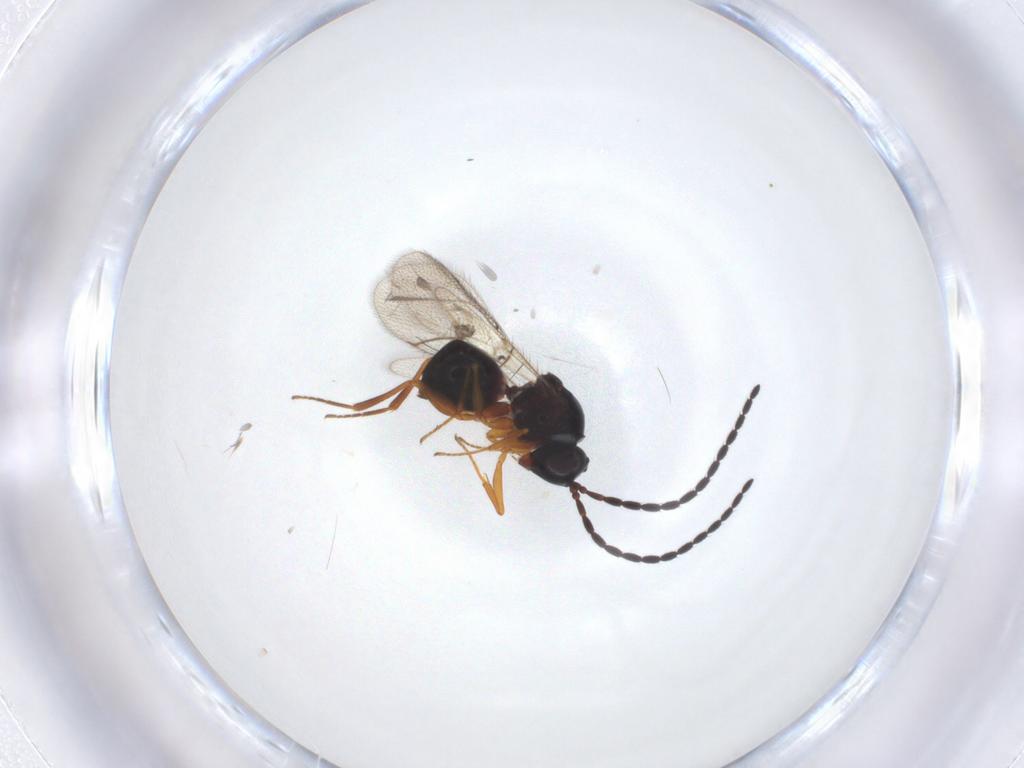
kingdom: Animalia
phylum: Arthropoda
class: Insecta
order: Hymenoptera
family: Figitidae
